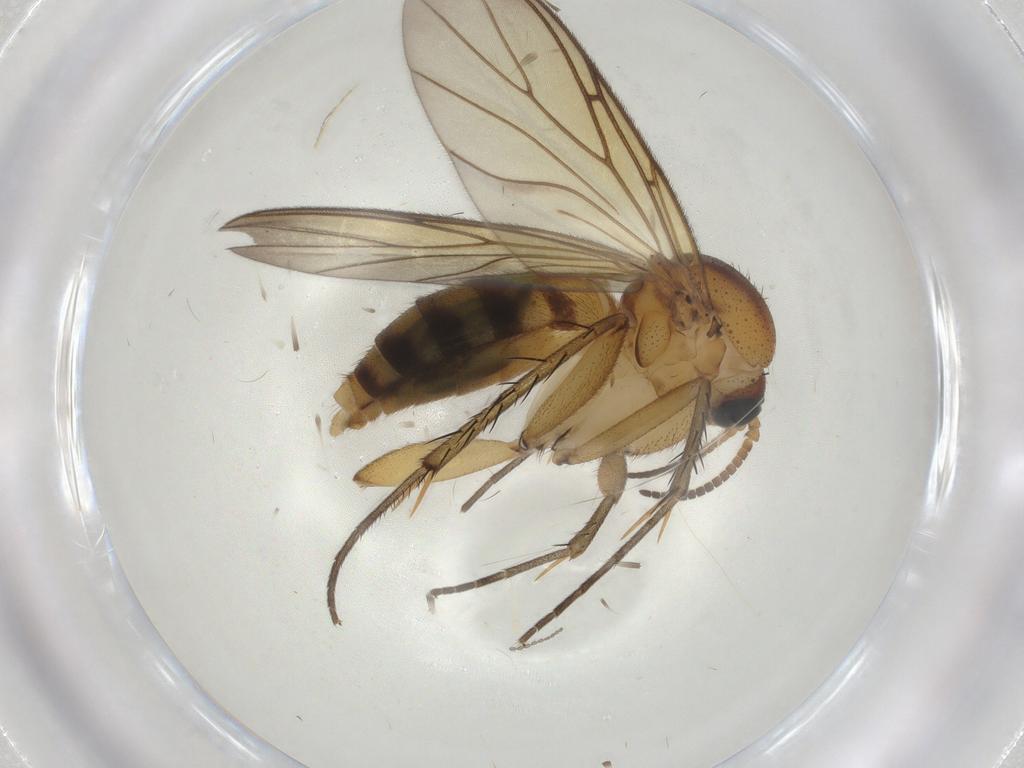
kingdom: Animalia
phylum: Arthropoda
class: Insecta
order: Diptera
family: Sciaridae
